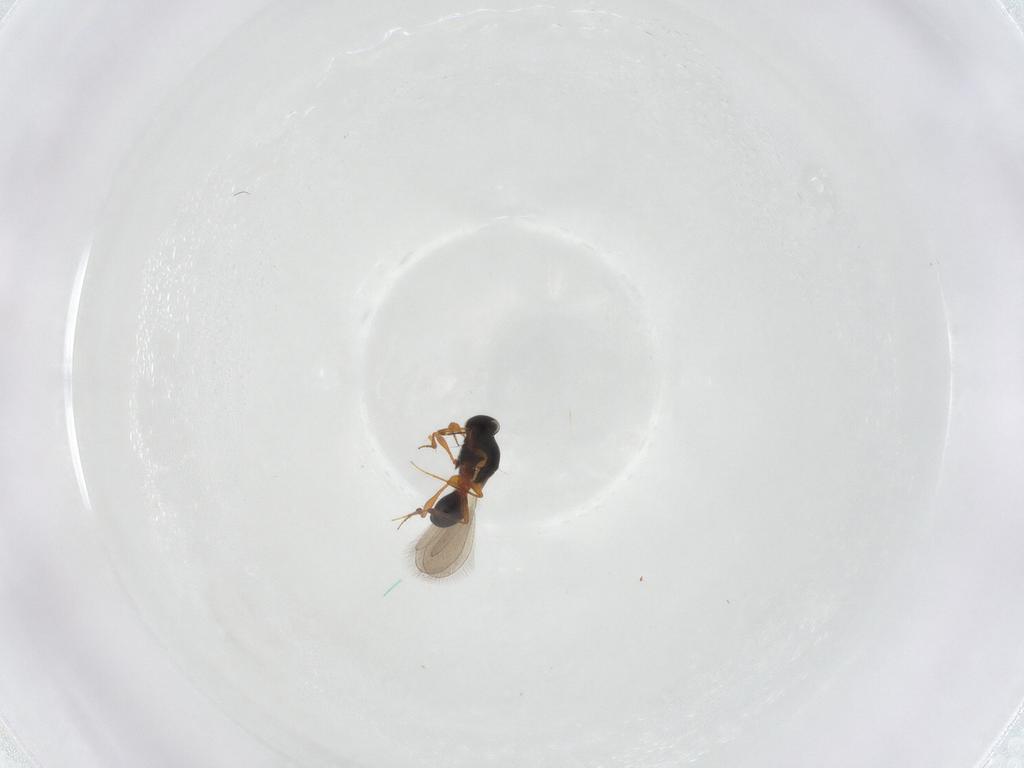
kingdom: Animalia
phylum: Arthropoda
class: Insecta
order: Hymenoptera
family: Platygastridae
